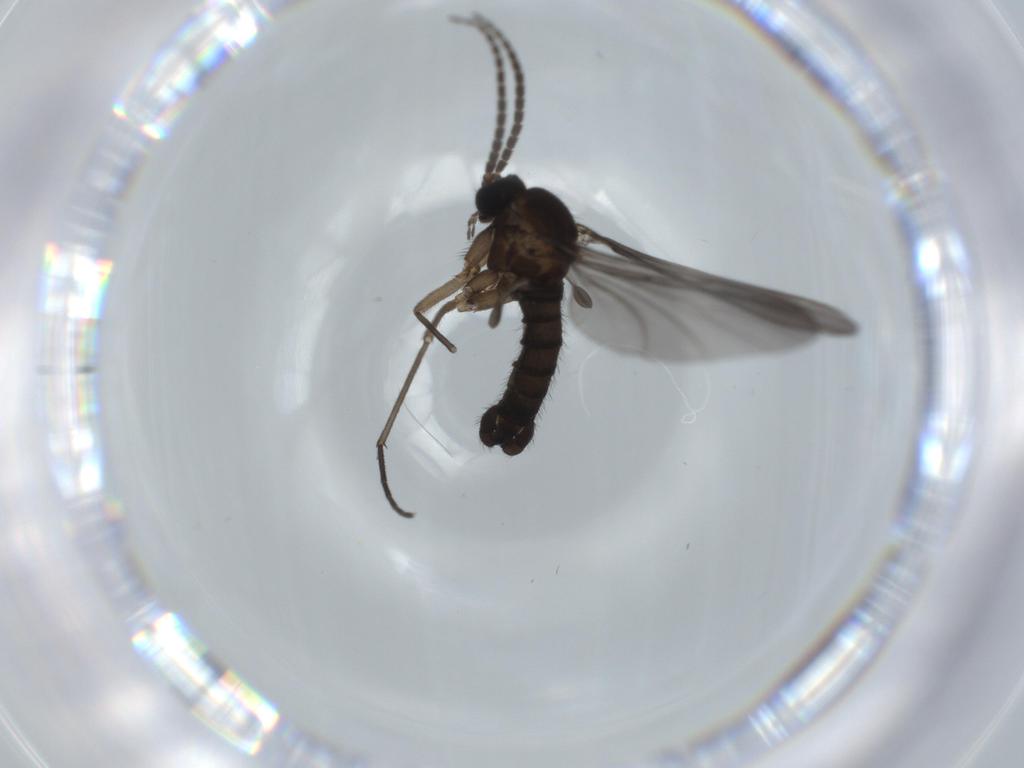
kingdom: Animalia
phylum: Arthropoda
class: Insecta
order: Diptera
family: Sciaridae
